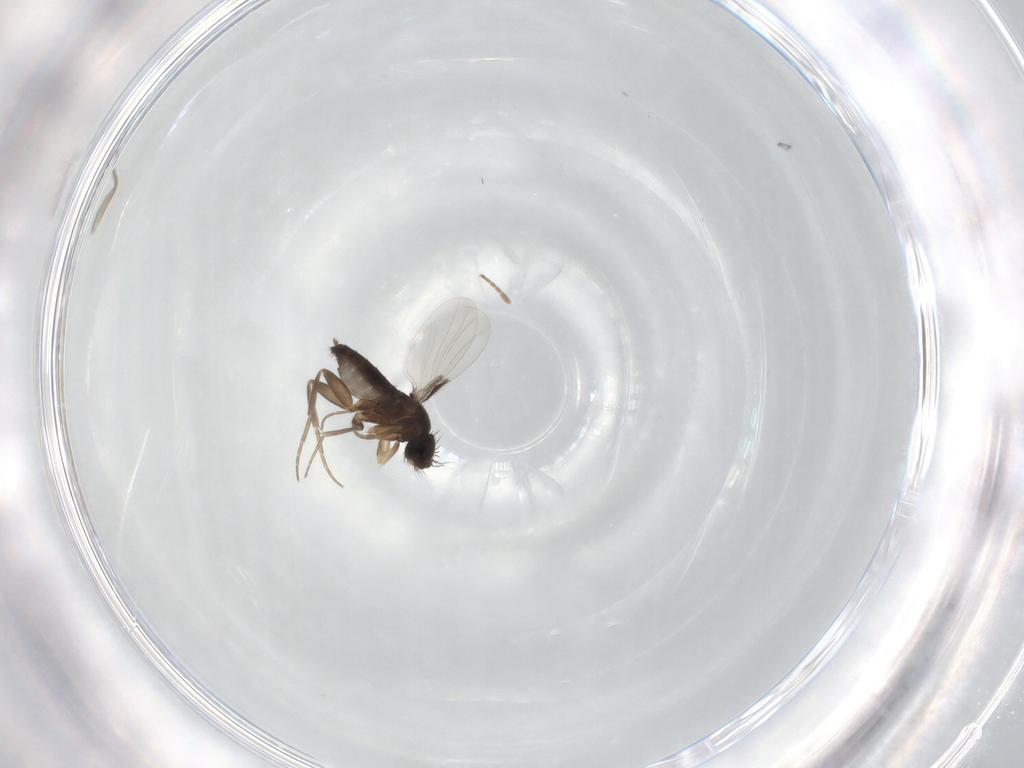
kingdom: Animalia
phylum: Arthropoda
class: Insecta
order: Diptera
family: Phoridae
